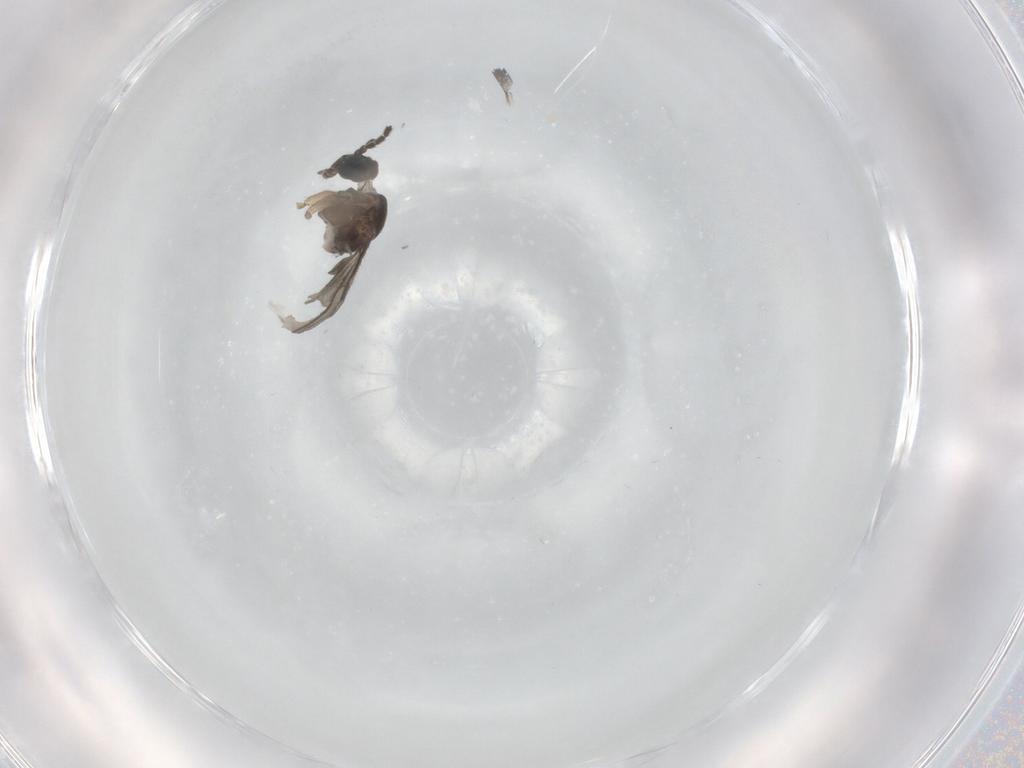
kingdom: Animalia
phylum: Arthropoda
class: Insecta
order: Diptera
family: Sciaridae
